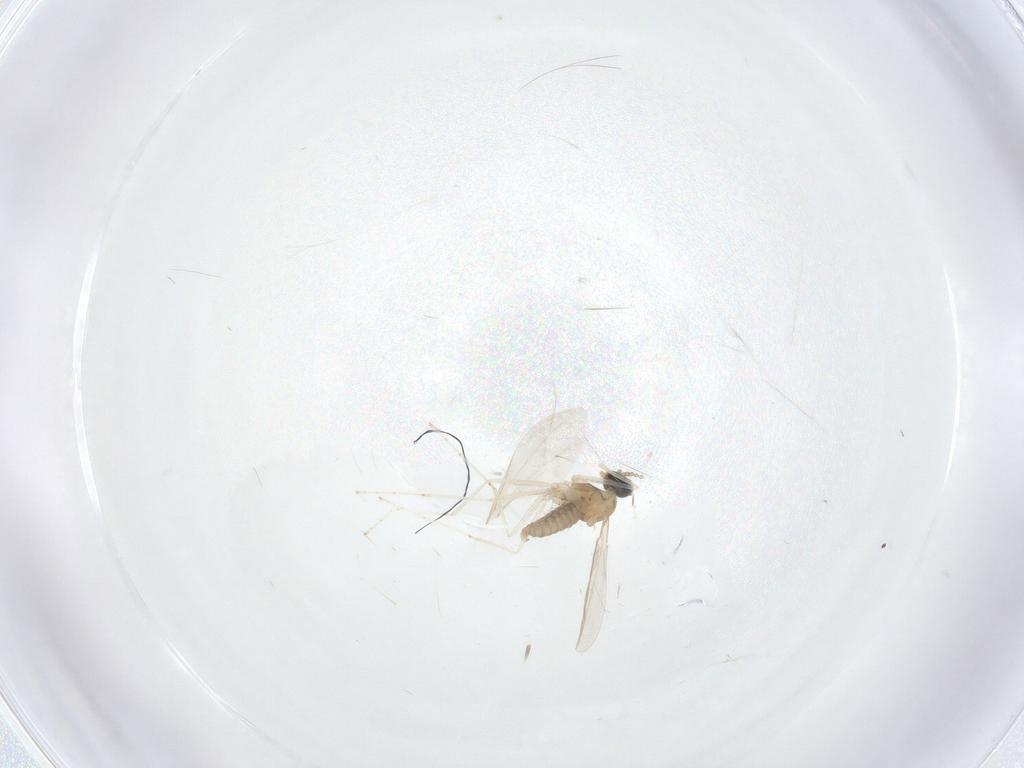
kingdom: Animalia
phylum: Arthropoda
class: Insecta
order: Diptera
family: Cecidomyiidae
